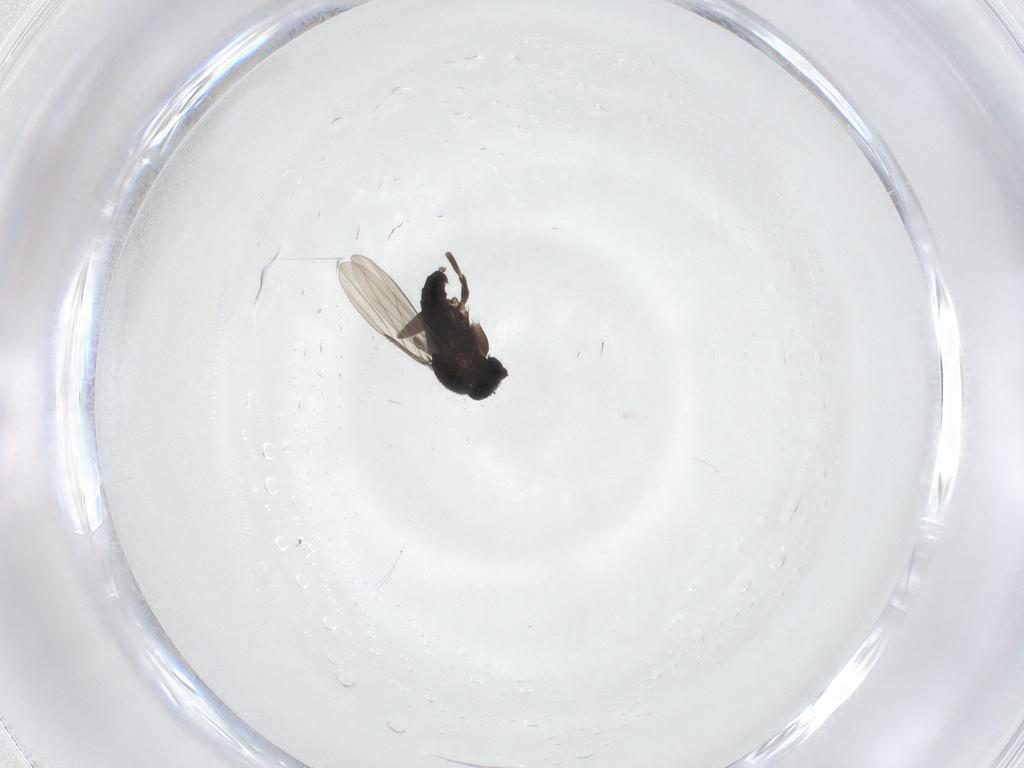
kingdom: Animalia
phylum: Arthropoda
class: Insecta
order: Diptera
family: Phoridae
